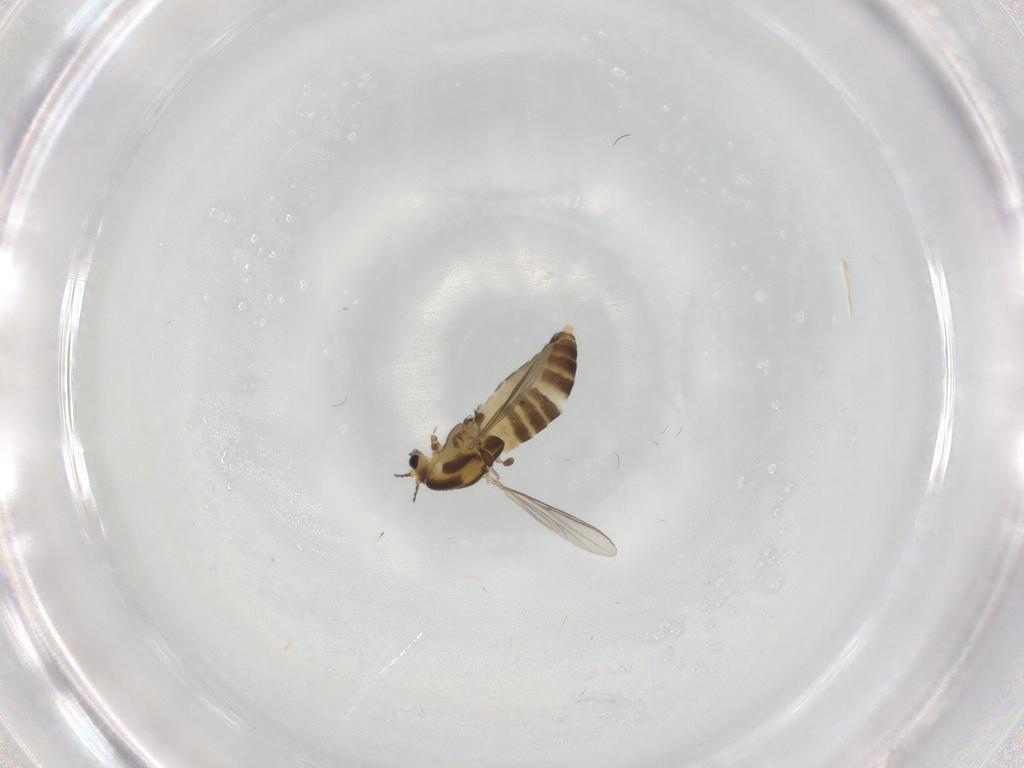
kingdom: Animalia
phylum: Arthropoda
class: Insecta
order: Diptera
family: Chironomidae
